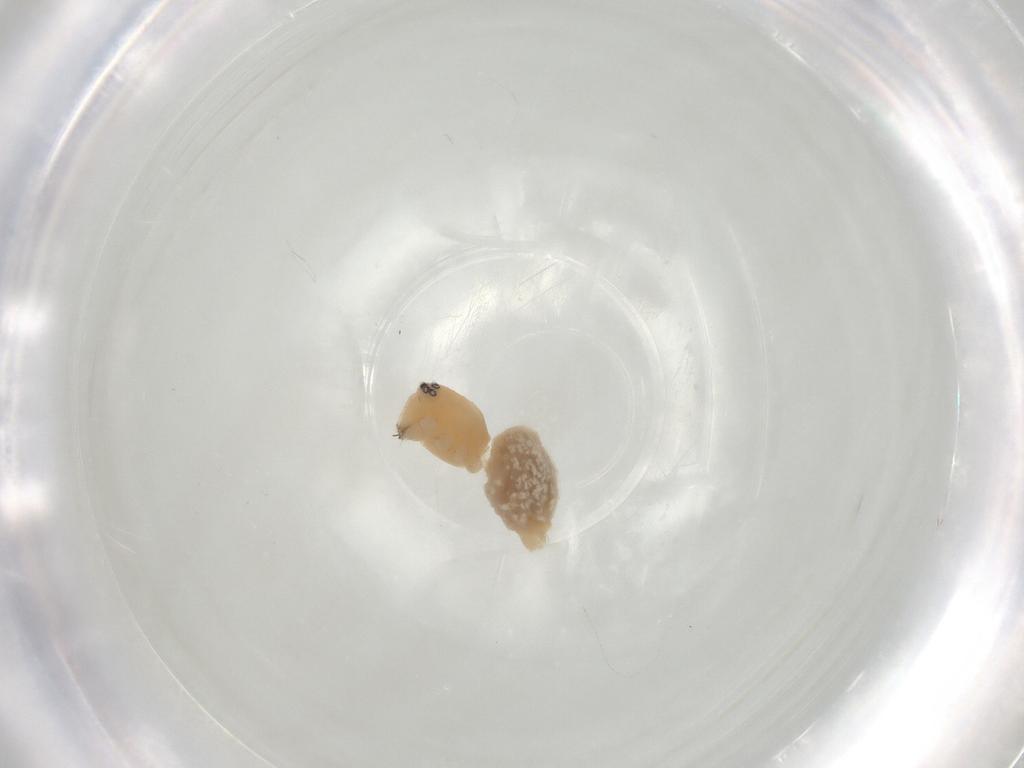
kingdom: Animalia
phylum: Arthropoda
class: Arachnida
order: Araneae
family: Cheiracanthiidae
